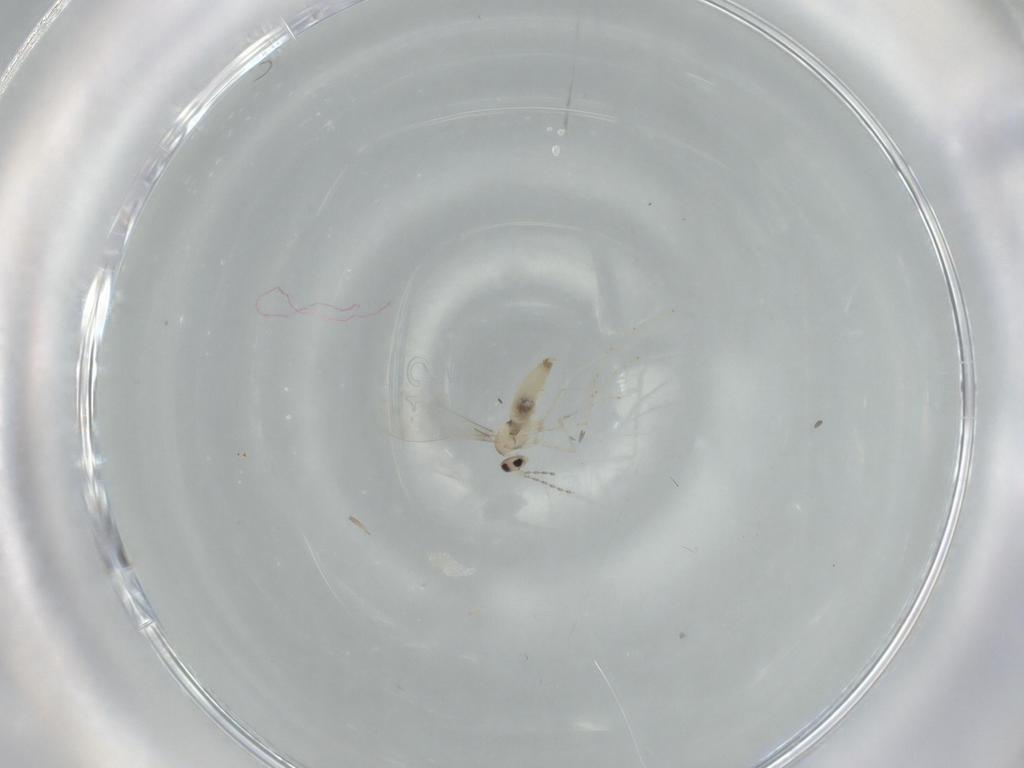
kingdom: Animalia
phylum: Arthropoda
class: Insecta
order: Diptera
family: Cecidomyiidae
